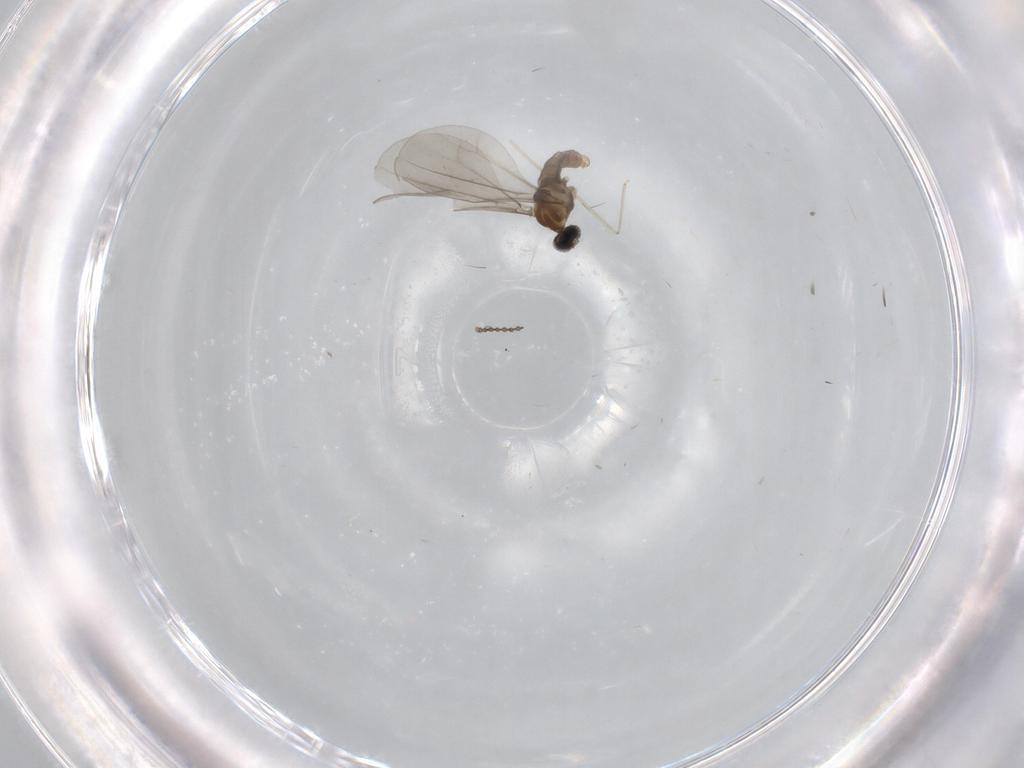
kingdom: Animalia
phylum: Arthropoda
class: Insecta
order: Diptera
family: Cecidomyiidae
